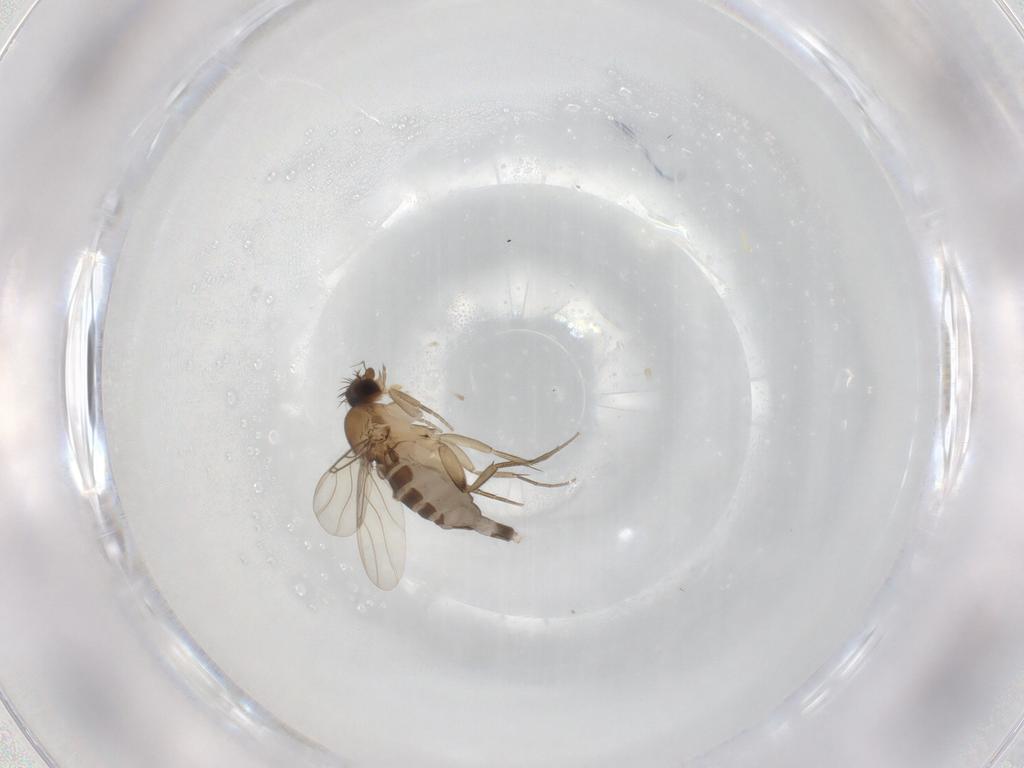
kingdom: Animalia
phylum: Arthropoda
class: Insecta
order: Diptera
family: Phoridae
